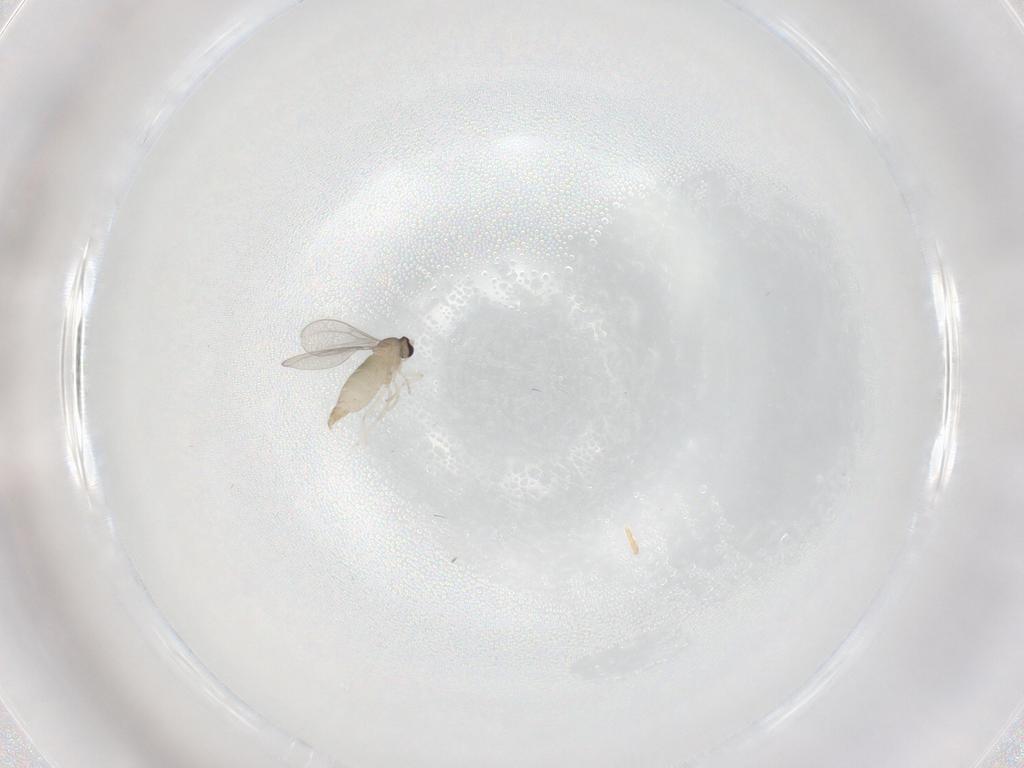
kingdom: Animalia
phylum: Arthropoda
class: Insecta
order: Diptera
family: Cecidomyiidae
